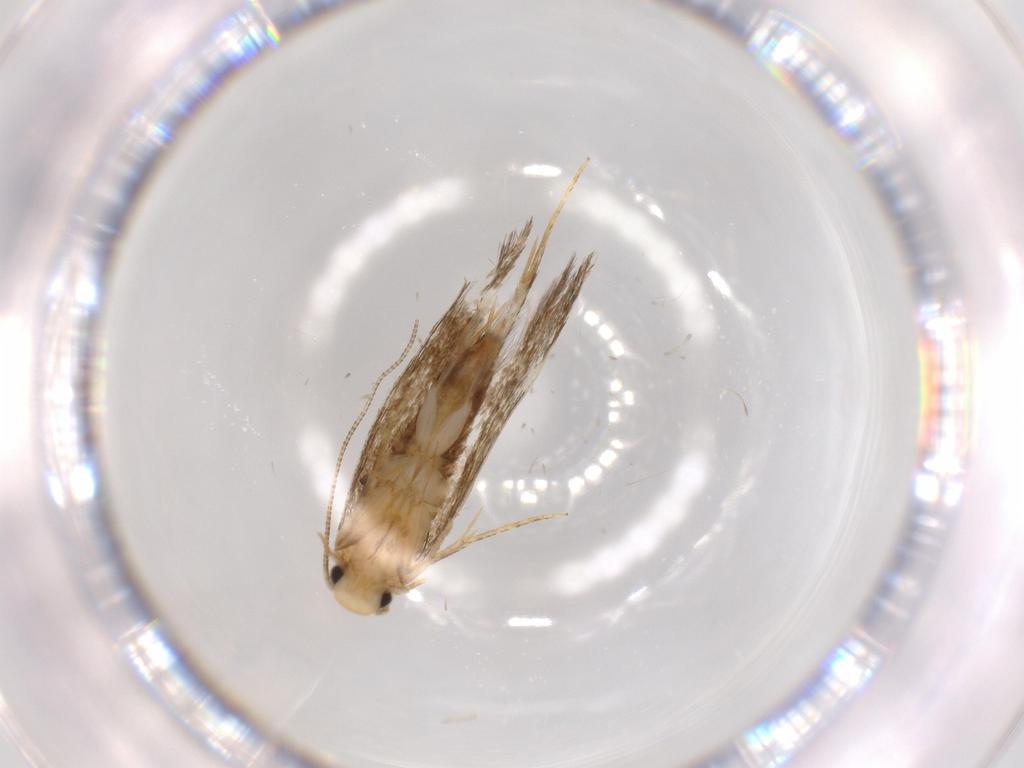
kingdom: Animalia
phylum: Arthropoda
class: Insecta
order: Lepidoptera
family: Tineidae
